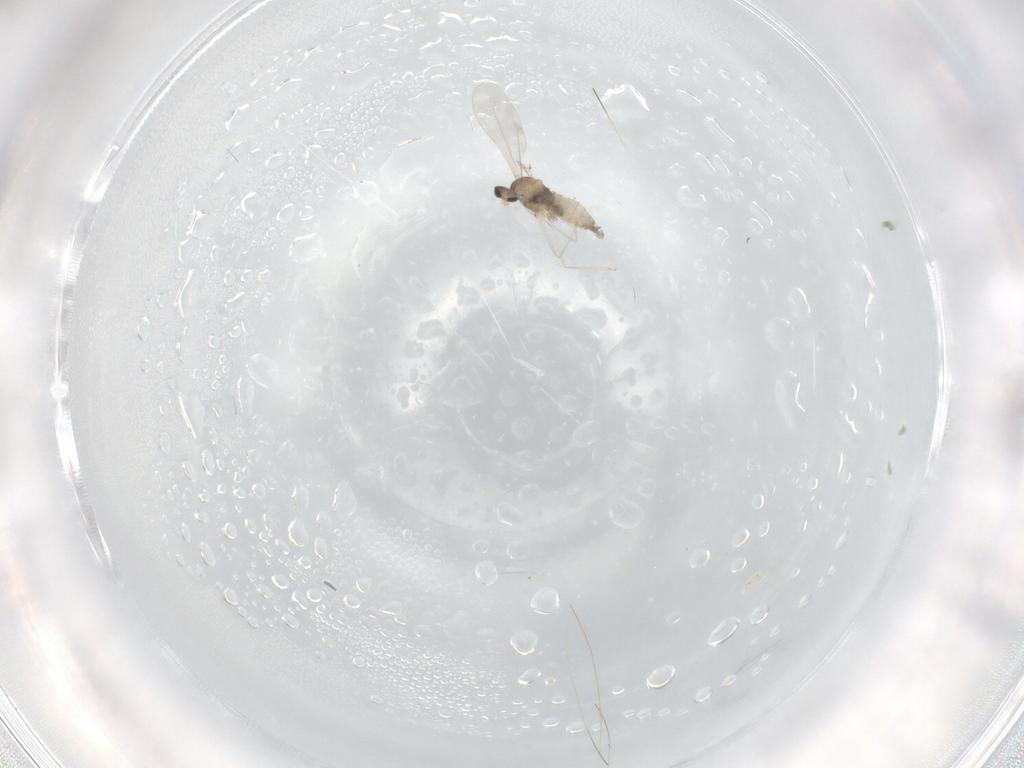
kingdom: Animalia
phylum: Arthropoda
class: Insecta
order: Diptera
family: Cecidomyiidae
